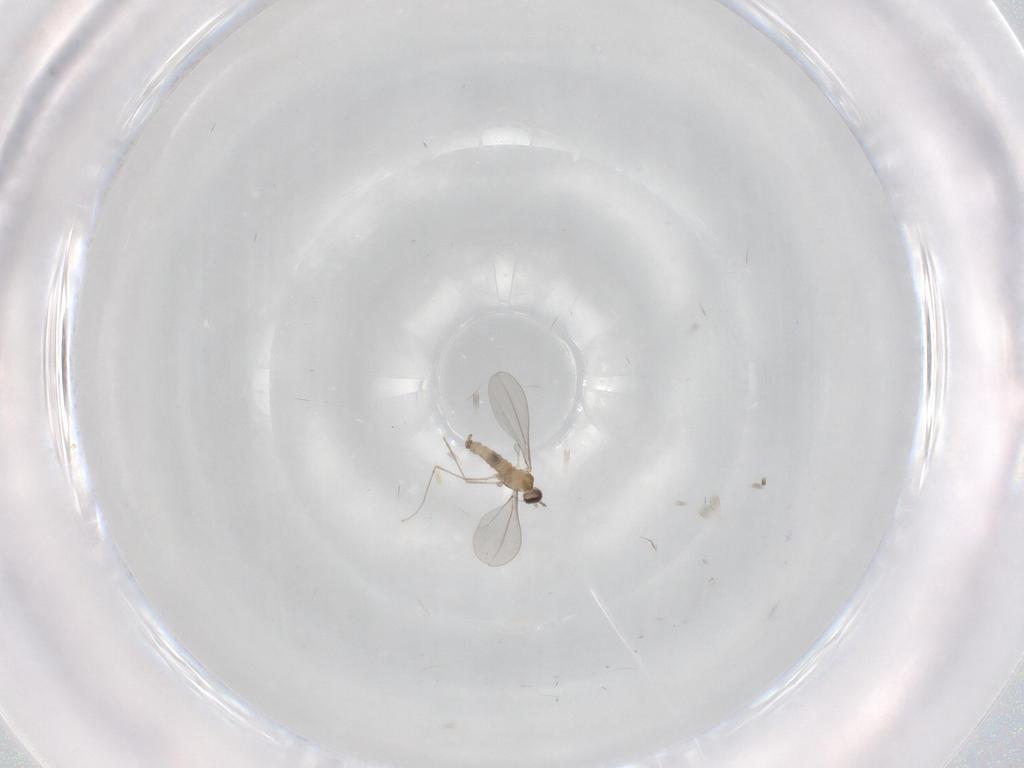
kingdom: Animalia
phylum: Arthropoda
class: Insecta
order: Diptera
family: Cecidomyiidae
